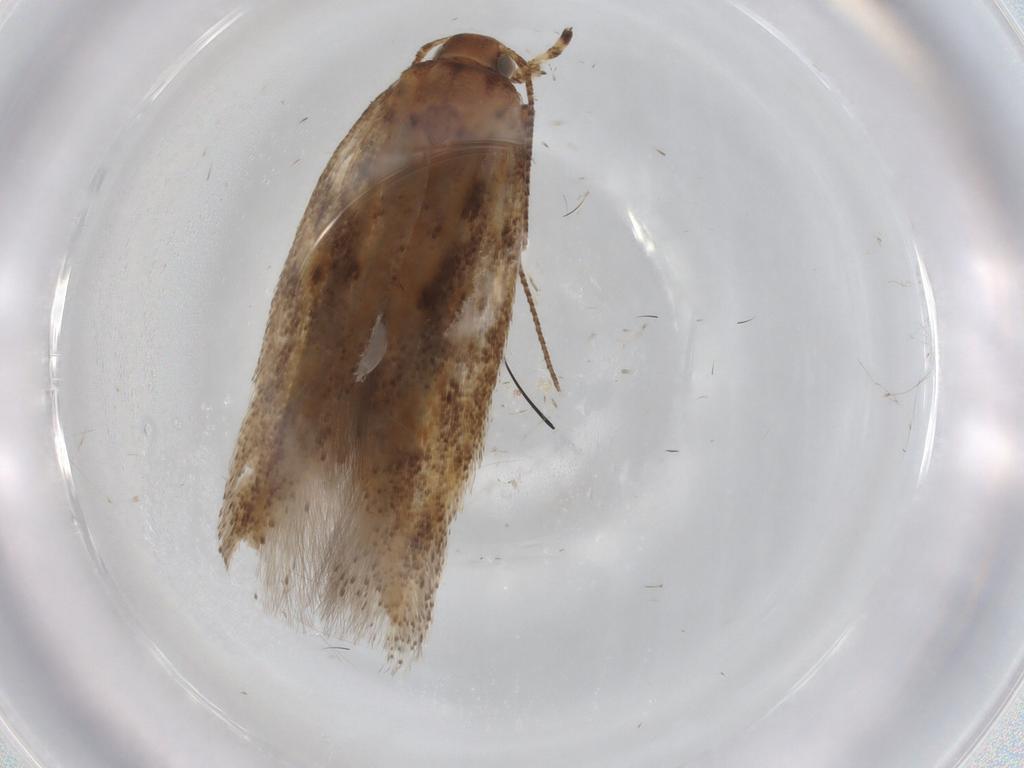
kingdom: Animalia
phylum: Arthropoda
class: Insecta
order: Lepidoptera
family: Gelechiidae
